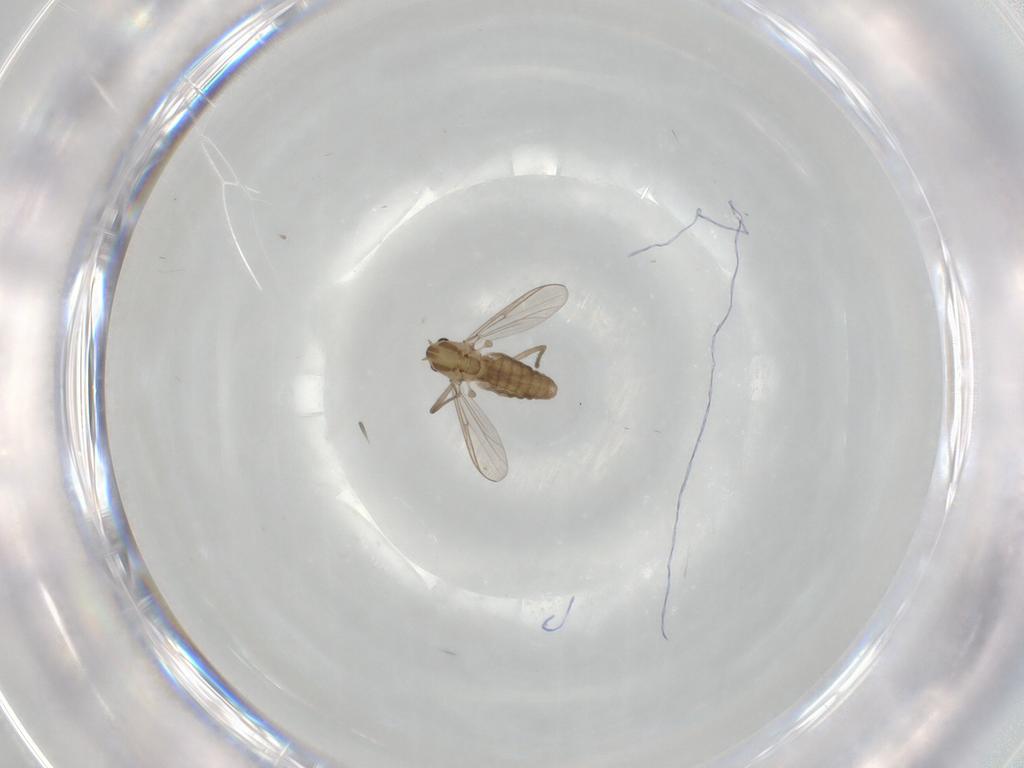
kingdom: Animalia
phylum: Arthropoda
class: Insecta
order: Diptera
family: Chironomidae
